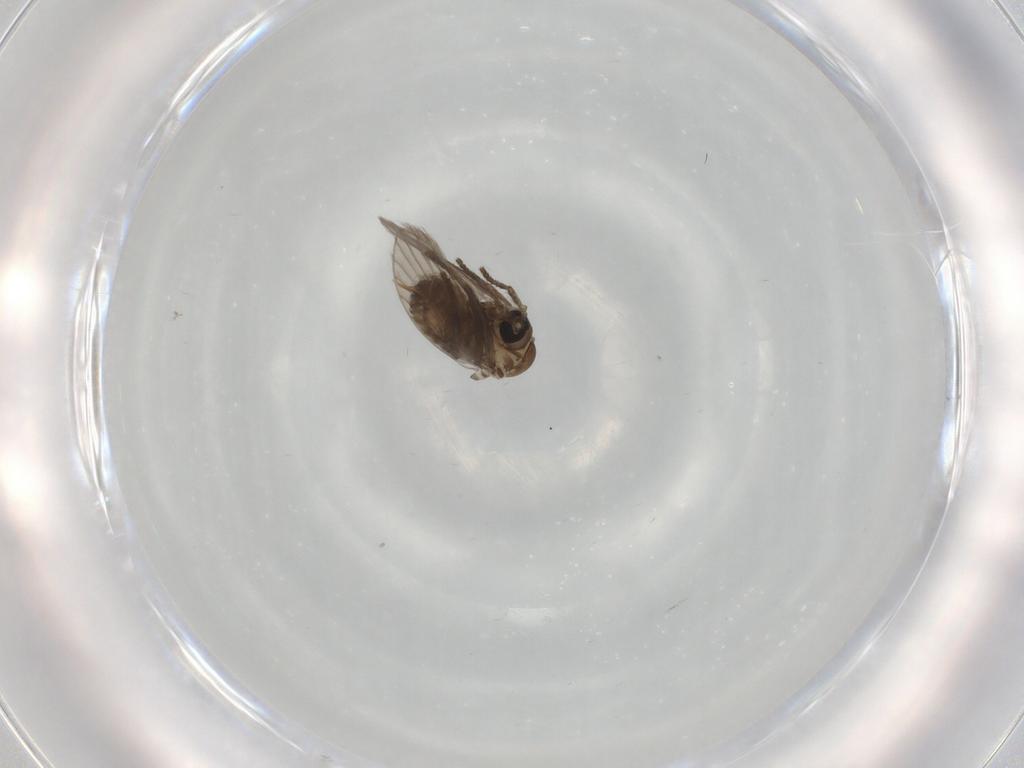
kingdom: Animalia
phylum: Arthropoda
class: Insecta
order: Diptera
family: Psychodidae
